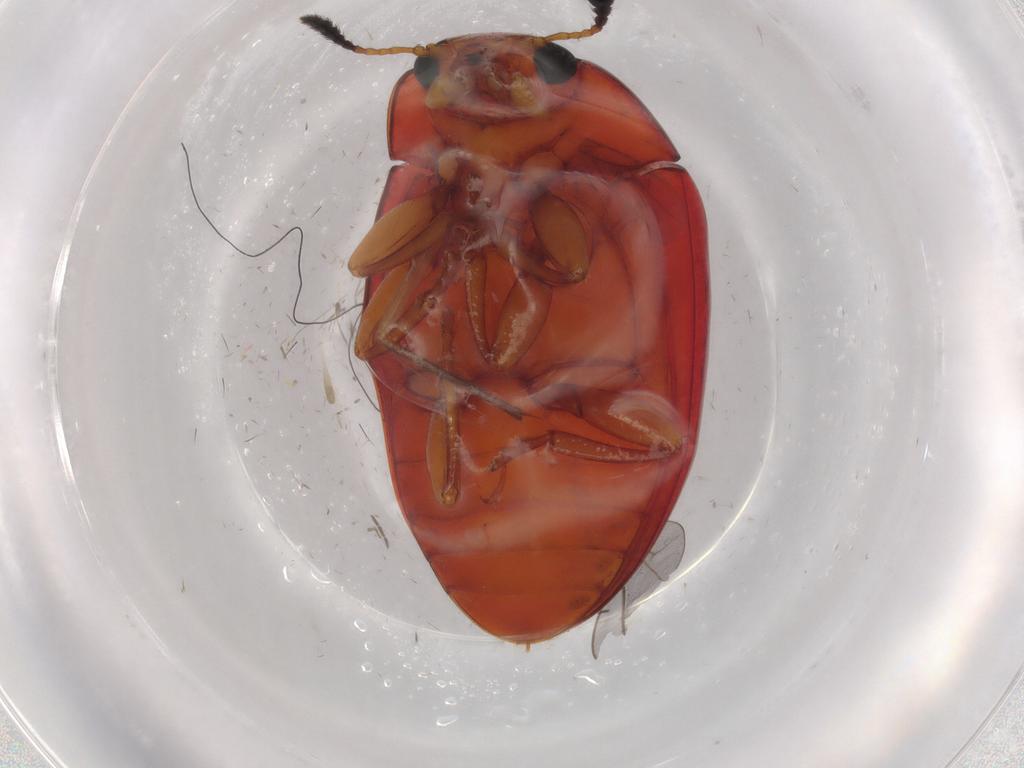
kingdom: Animalia
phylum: Arthropoda
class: Insecta
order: Coleoptera
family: Erotylidae
